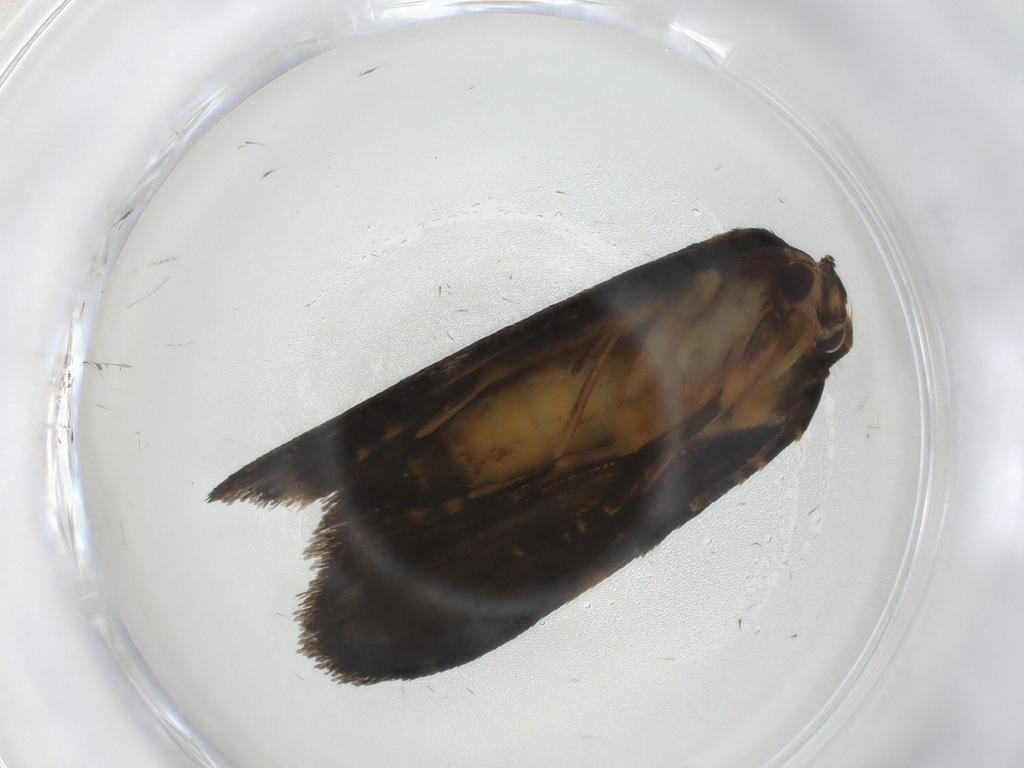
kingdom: Animalia
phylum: Arthropoda
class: Insecta
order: Lepidoptera
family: Depressariidae
